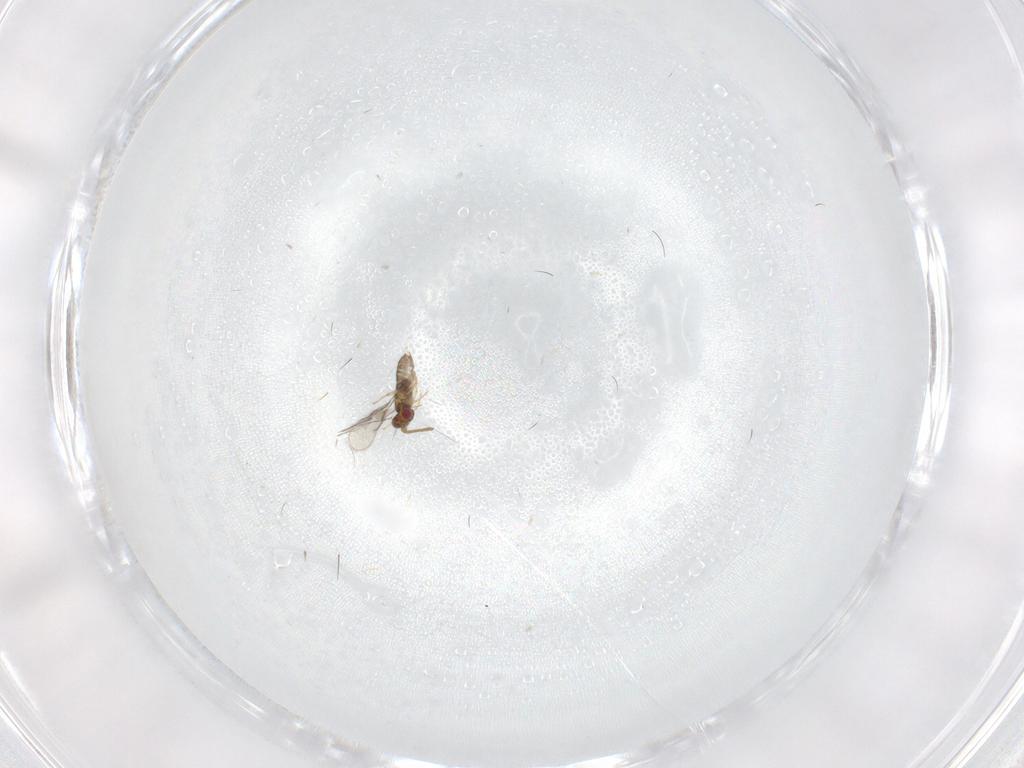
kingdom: Animalia
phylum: Arthropoda
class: Insecta
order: Hymenoptera
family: Aphelinidae
